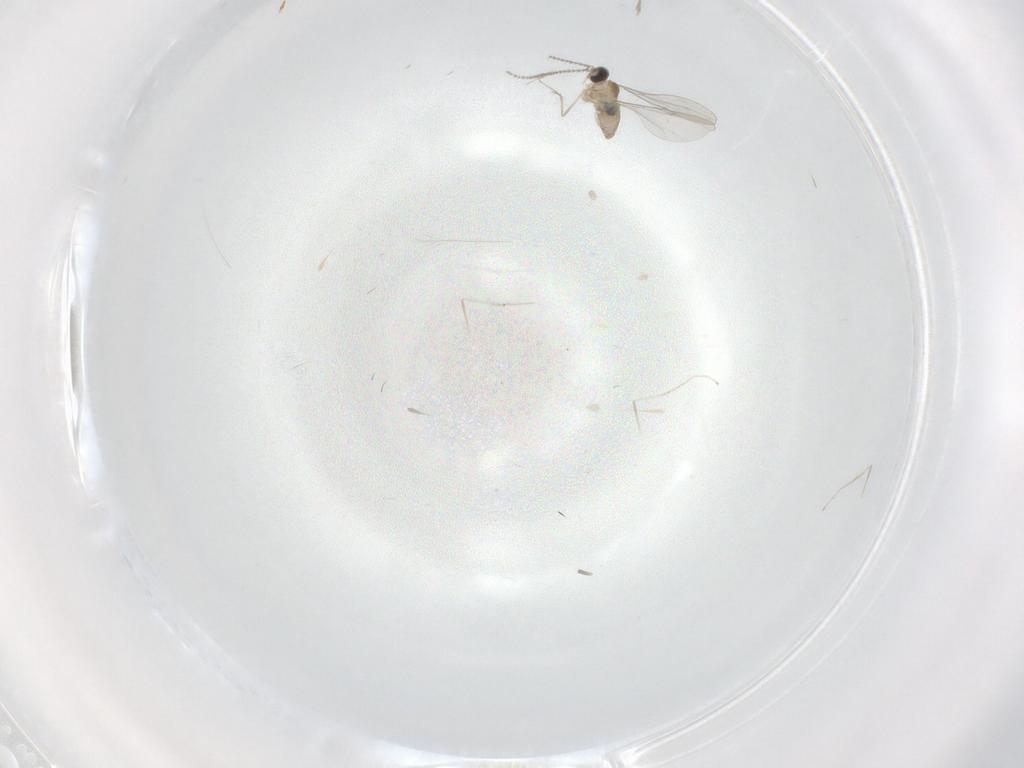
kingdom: Animalia
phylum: Arthropoda
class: Insecta
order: Diptera
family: Cecidomyiidae
